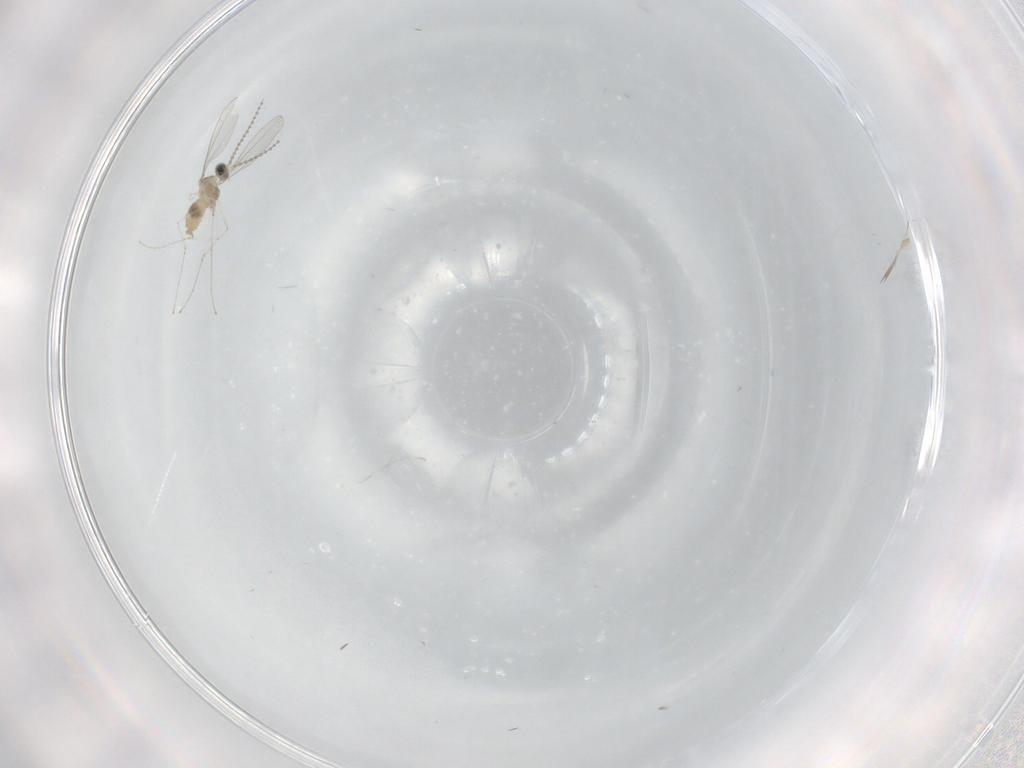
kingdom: Animalia
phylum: Arthropoda
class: Insecta
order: Diptera
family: Cecidomyiidae
